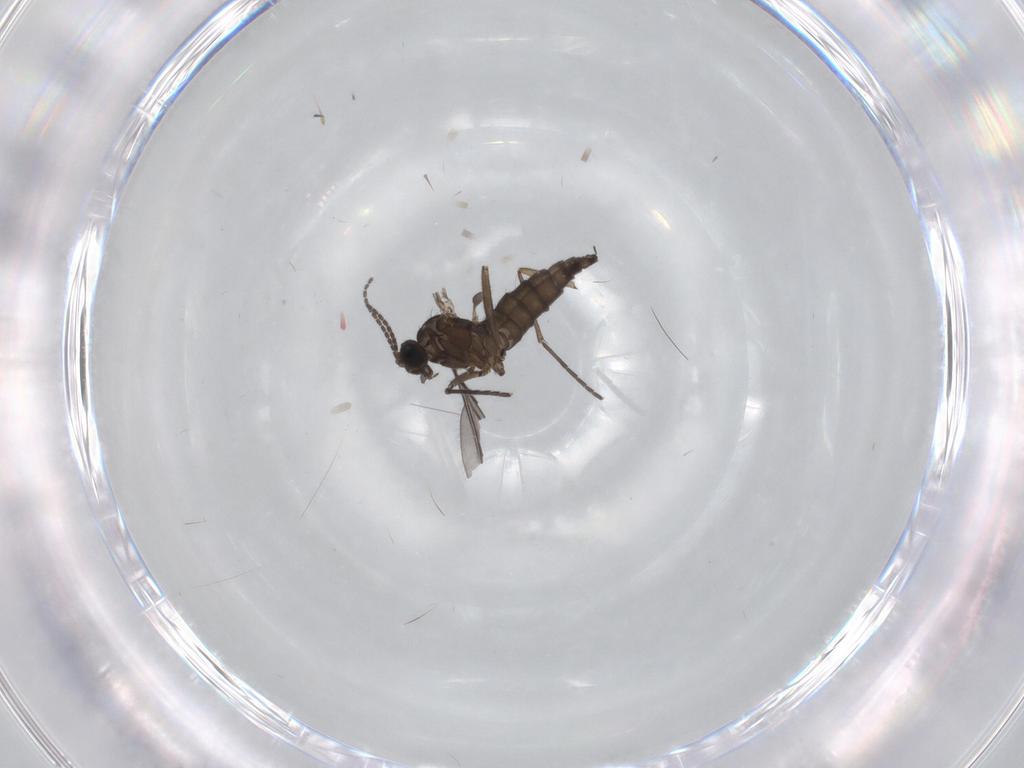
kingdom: Animalia
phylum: Arthropoda
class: Insecta
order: Diptera
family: Sciaridae
